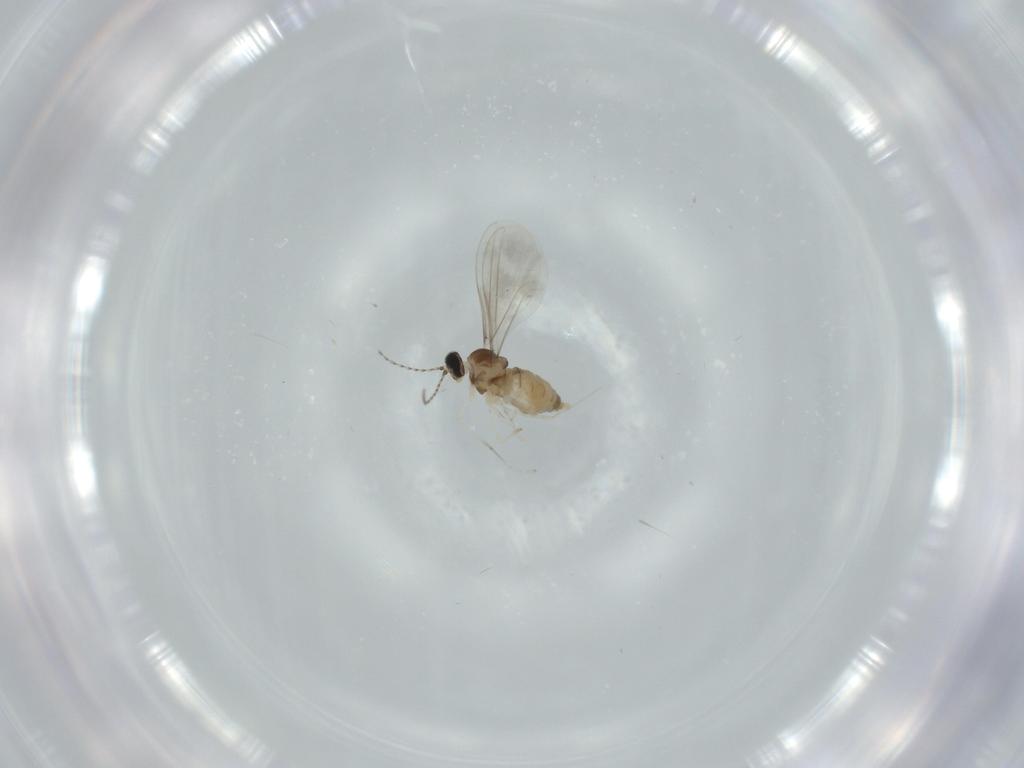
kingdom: Animalia
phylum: Arthropoda
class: Insecta
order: Diptera
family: Cecidomyiidae
